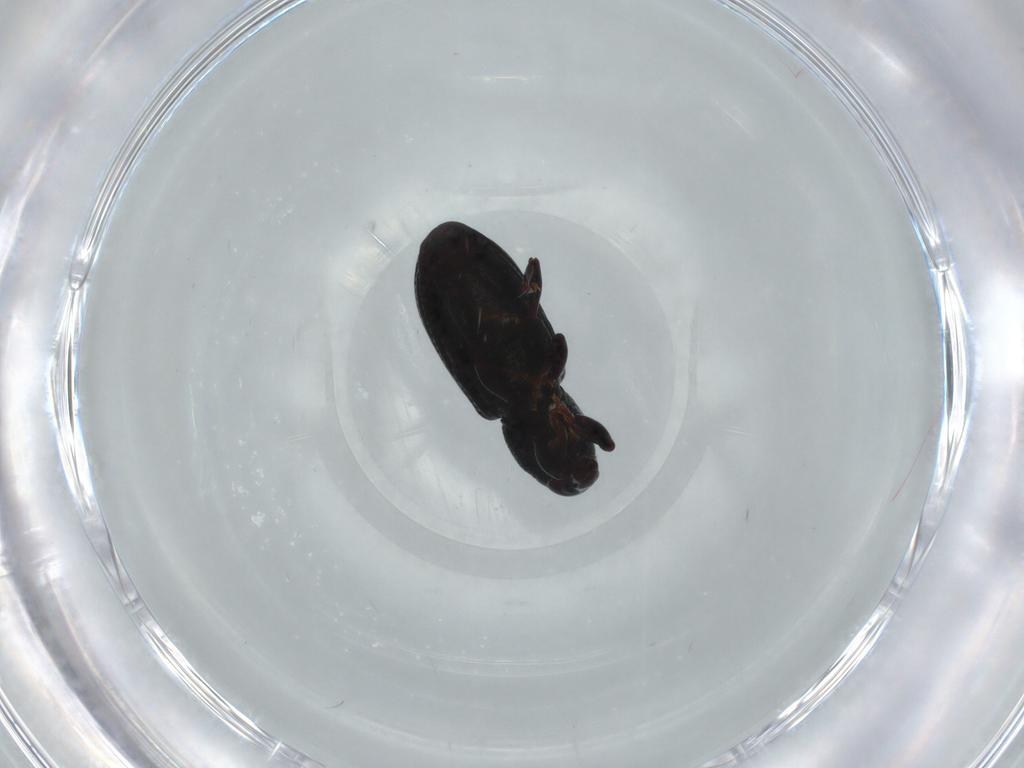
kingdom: Animalia
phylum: Arthropoda
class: Insecta
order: Coleoptera
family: Curculionidae
